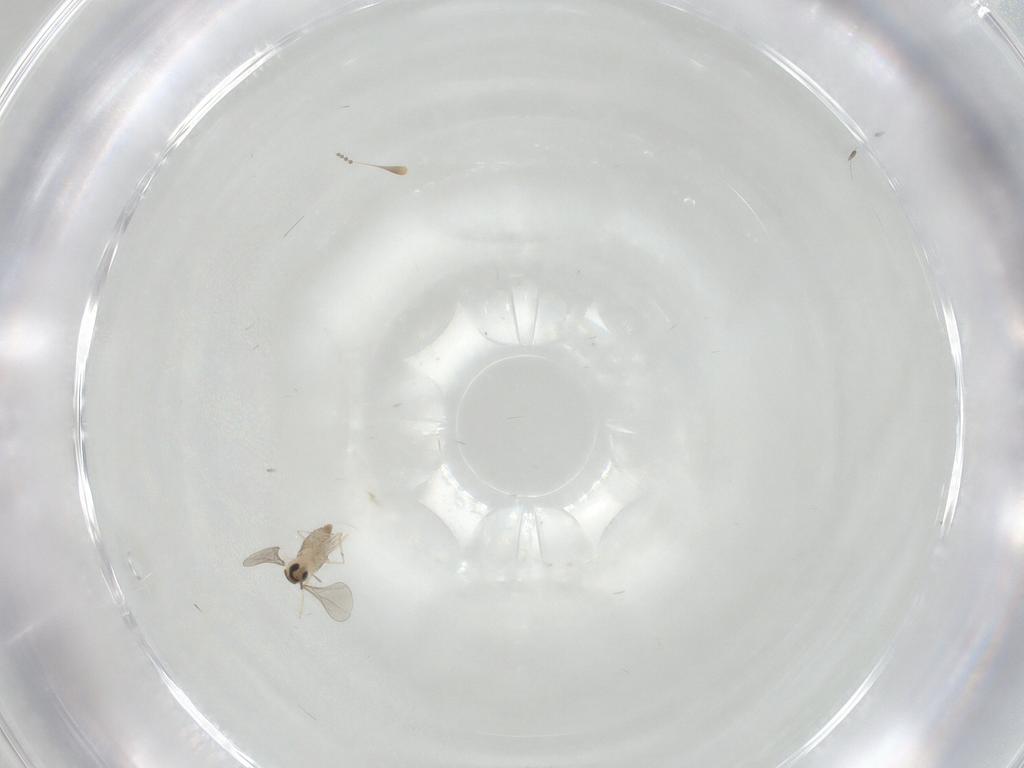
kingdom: Animalia
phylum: Arthropoda
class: Insecta
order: Diptera
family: Cecidomyiidae
